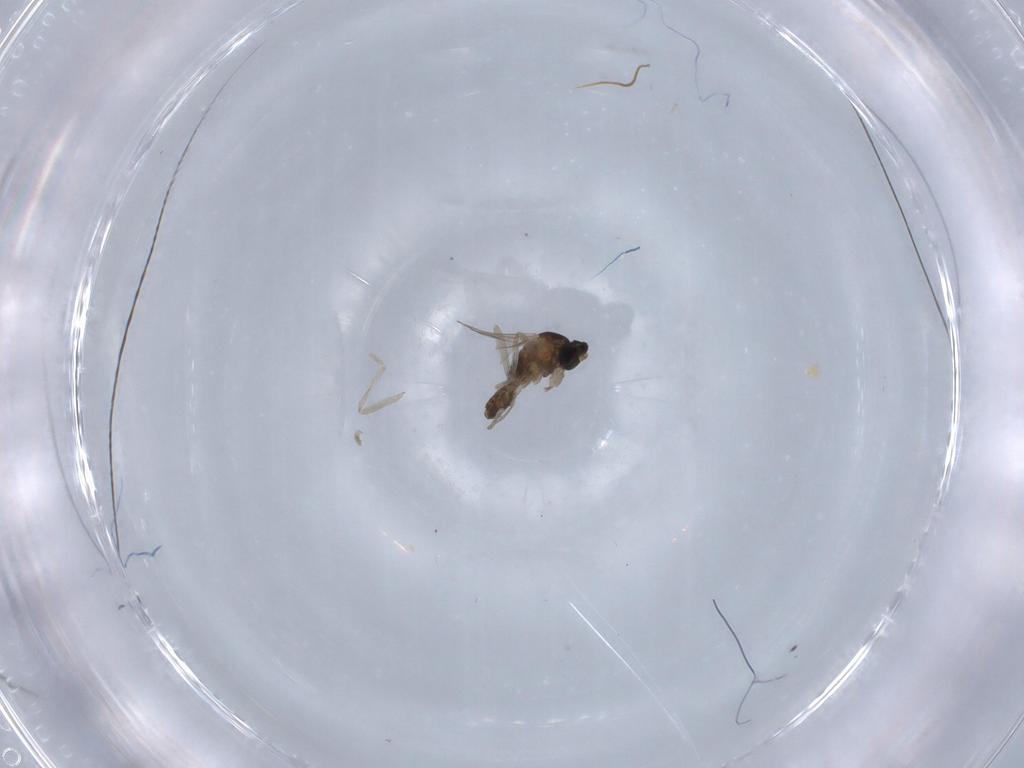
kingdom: Animalia
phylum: Arthropoda
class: Insecta
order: Diptera
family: Cecidomyiidae
